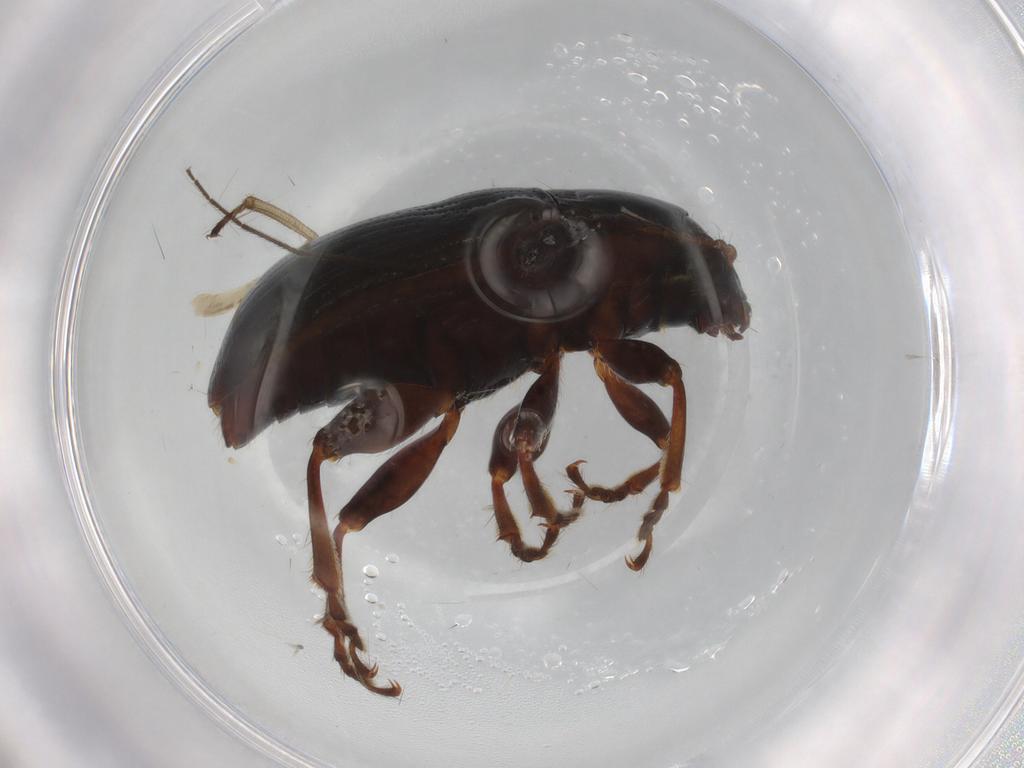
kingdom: Animalia
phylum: Arthropoda
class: Insecta
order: Coleoptera
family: Chrysomelidae
